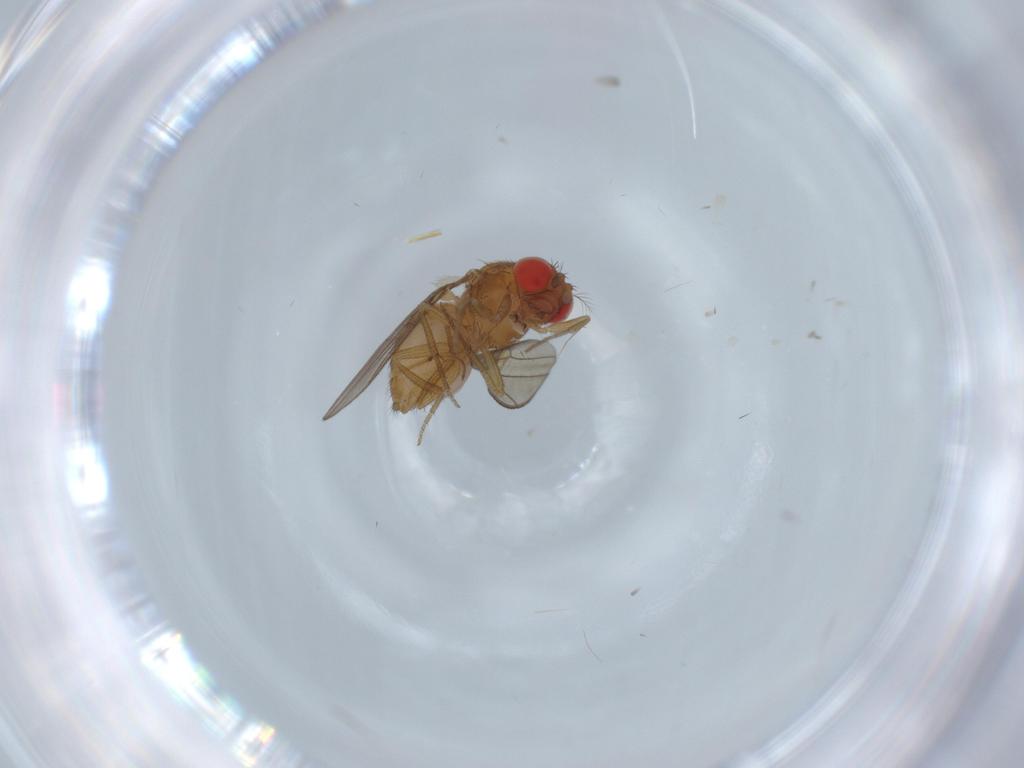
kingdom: Animalia
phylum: Arthropoda
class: Insecta
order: Diptera
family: Drosophilidae
